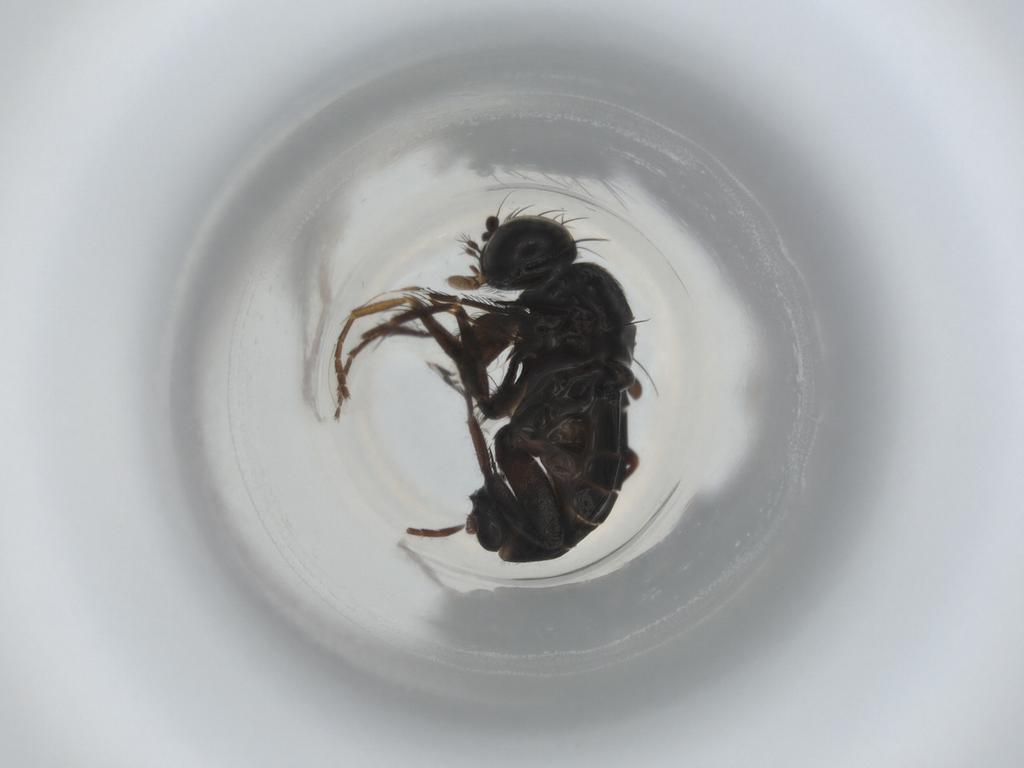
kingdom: Animalia
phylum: Arthropoda
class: Insecta
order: Diptera
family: Phoridae
